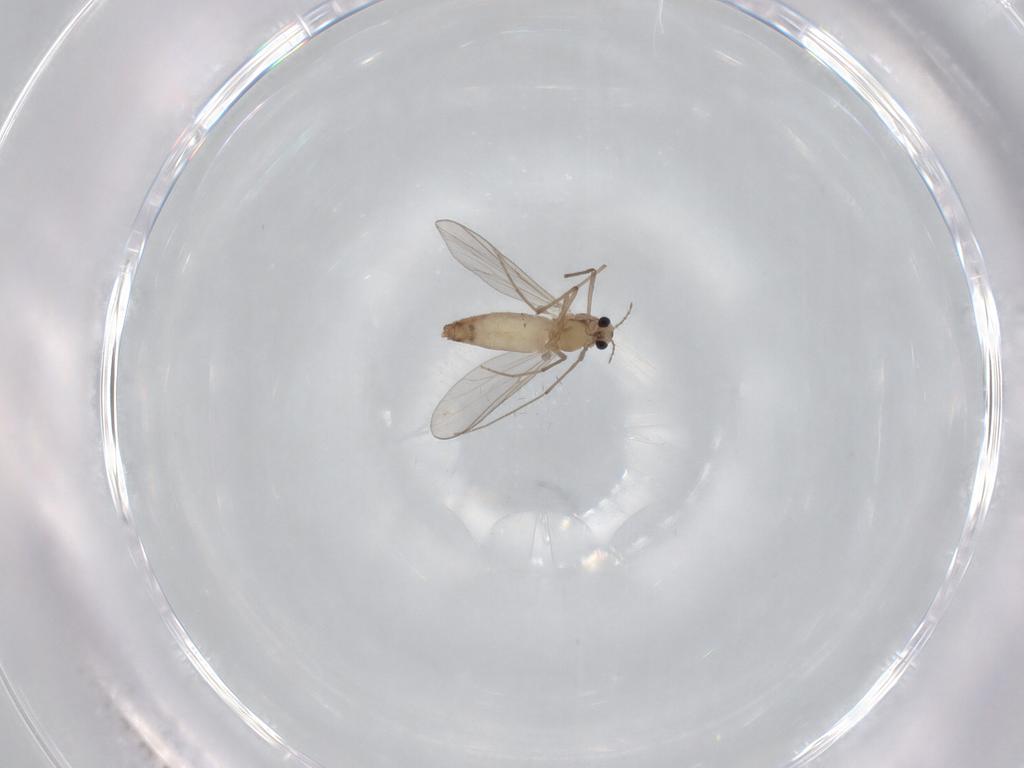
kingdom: Animalia
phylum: Arthropoda
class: Insecta
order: Diptera
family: Chironomidae
